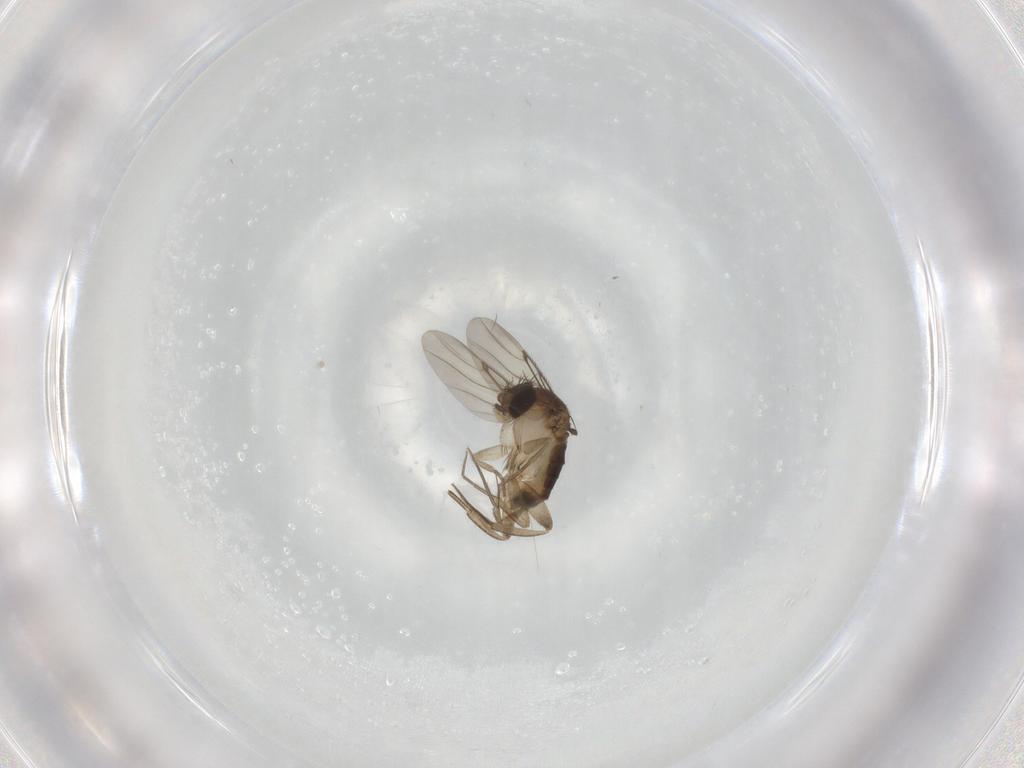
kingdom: Animalia
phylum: Arthropoda
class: Insecta
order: Diptera
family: Phoridae
